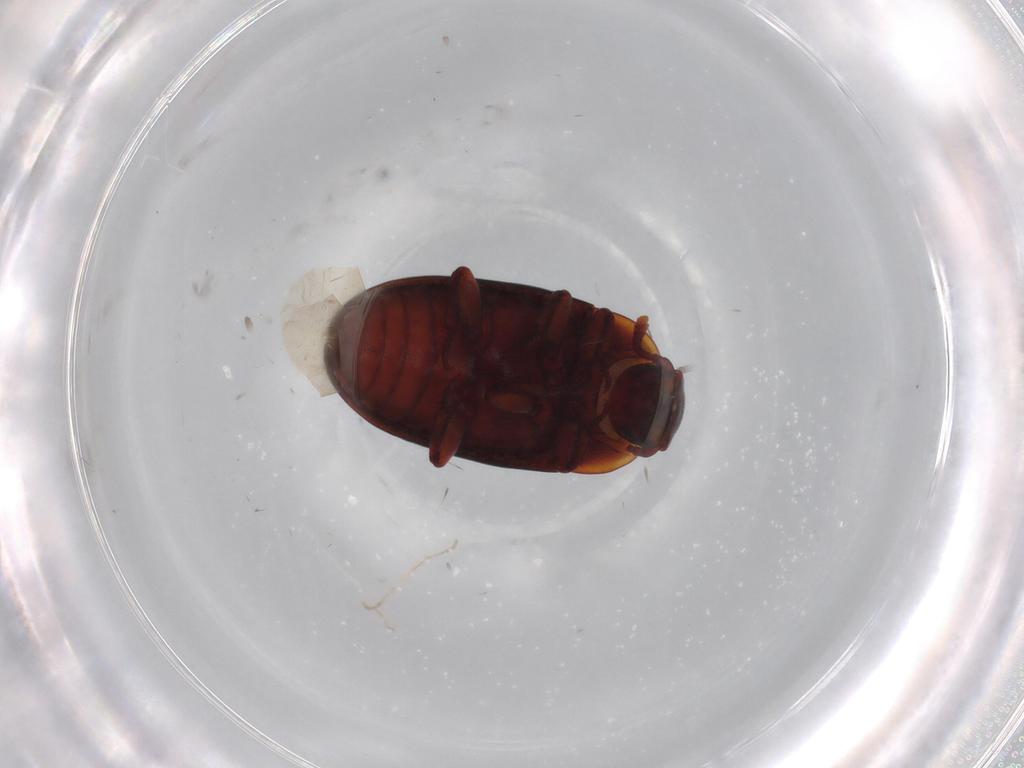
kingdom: Animalia
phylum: Arthropoda
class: Insecta
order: Coleoptera
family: Zopheridae
